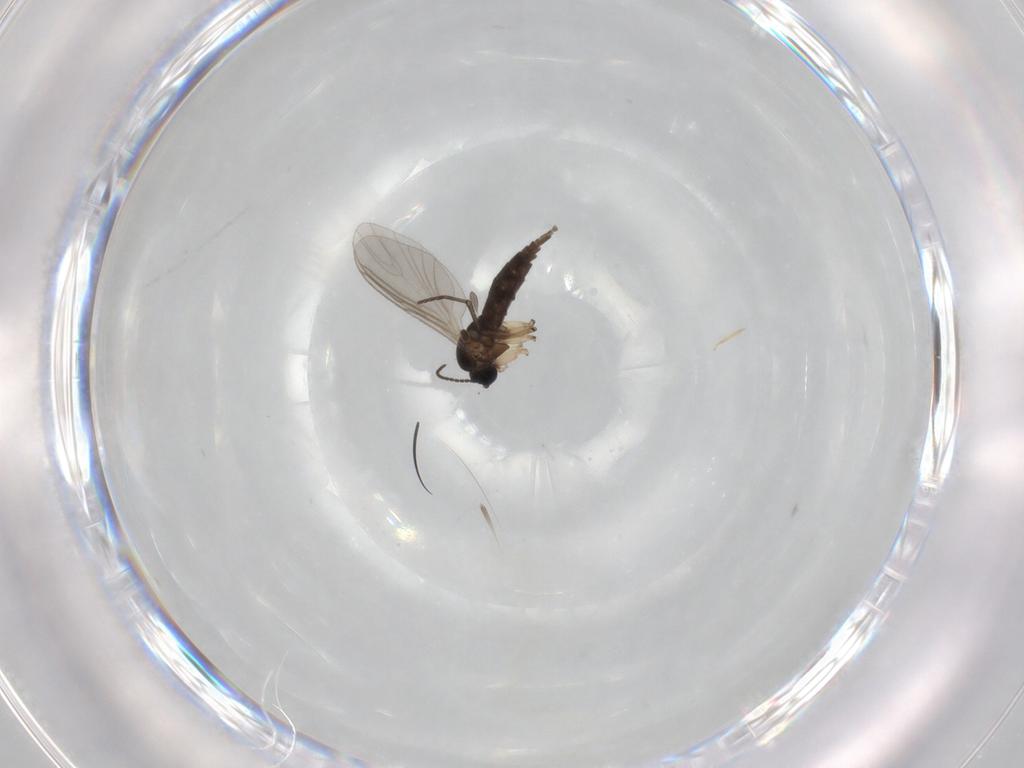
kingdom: Animalia
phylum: Arthropoda
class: Insecta
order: Diptera
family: Sciaridae
